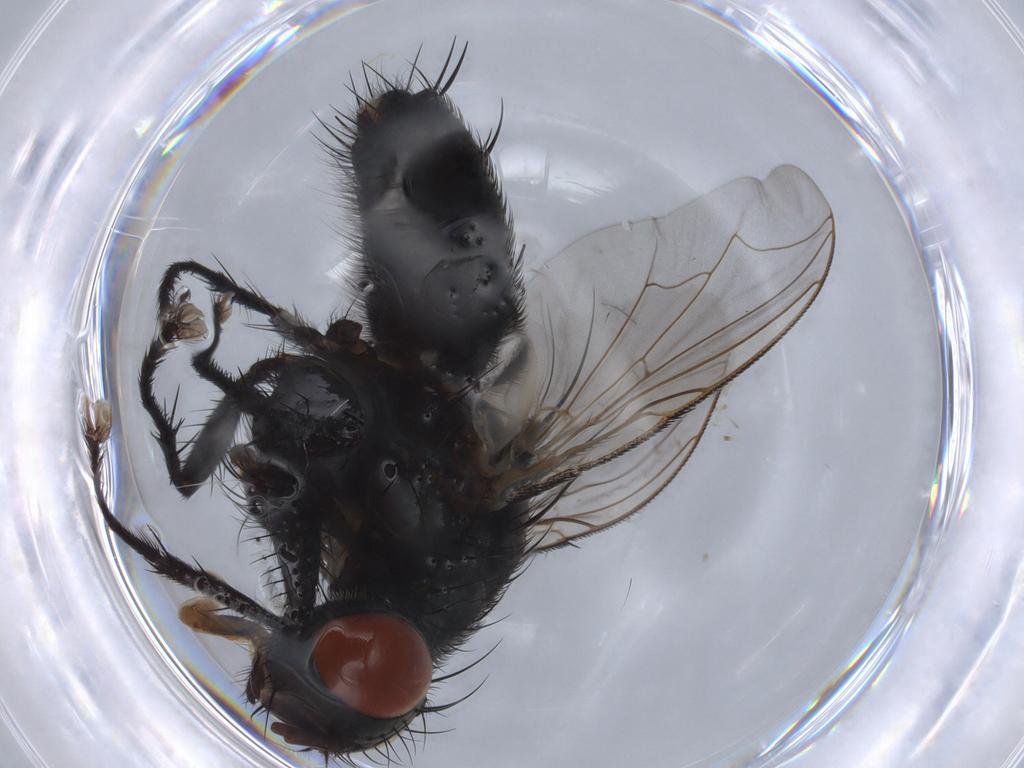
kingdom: Animalia
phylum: Arthropoda
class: Insecta
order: Diptera
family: Sarcophagidae
